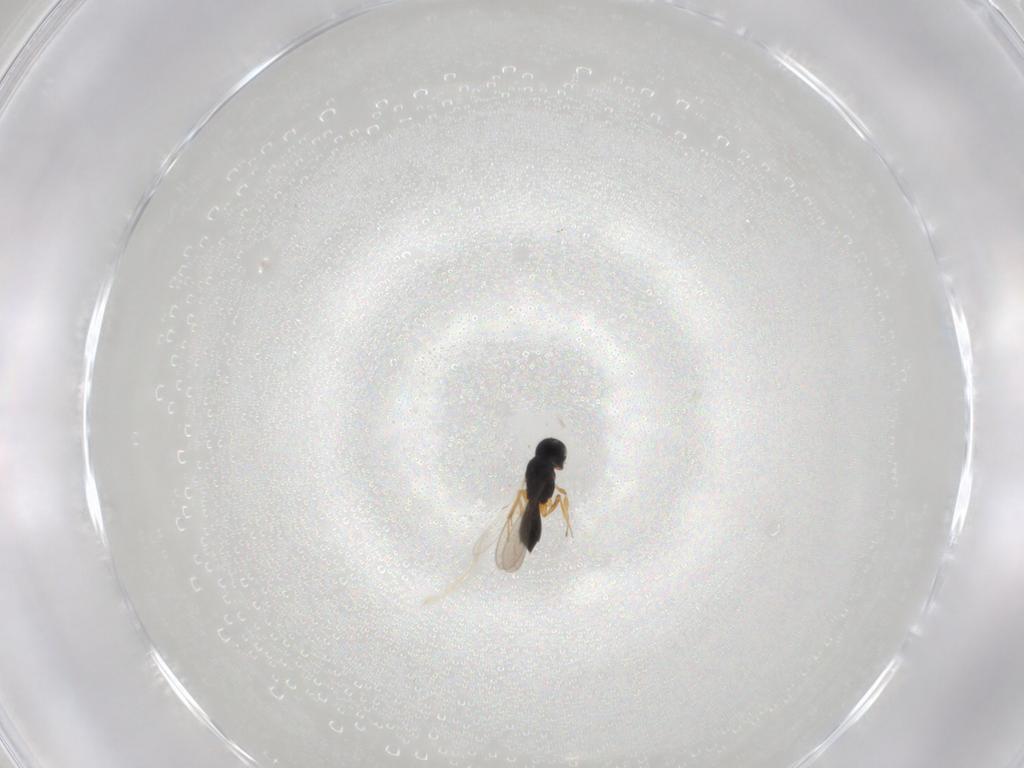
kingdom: Animalia
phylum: Arthropoda
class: Insecta
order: Hymenoptera
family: Scelionidae
